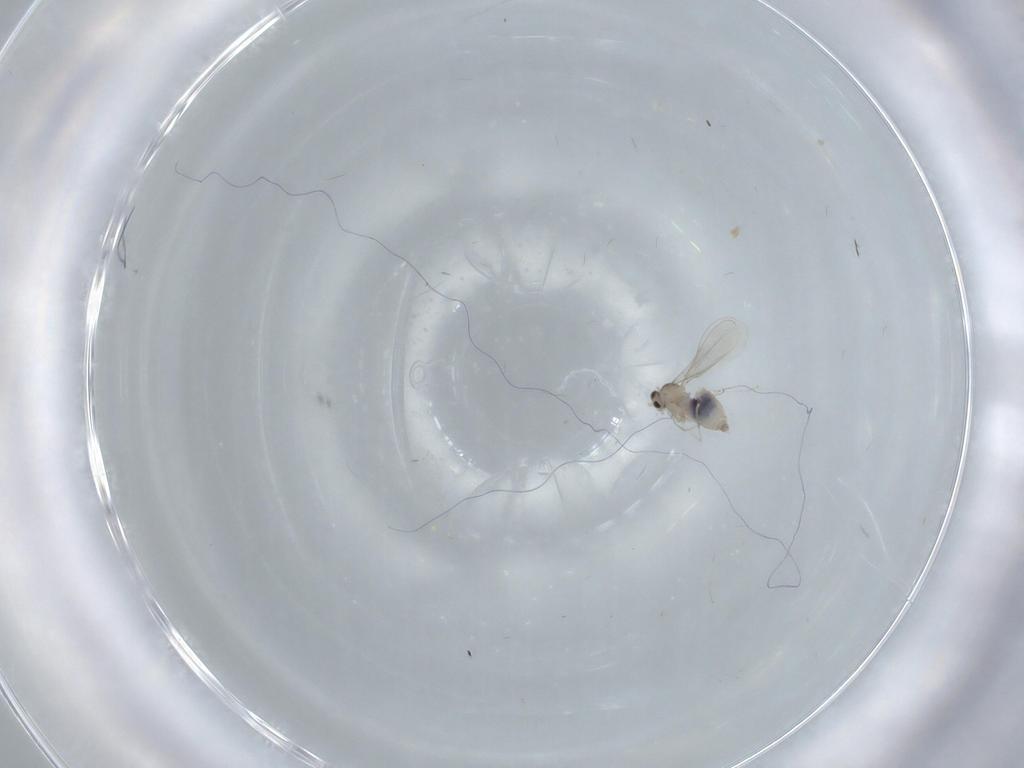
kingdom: Animalia
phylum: Arthropoda
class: Insecta
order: Diptera
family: Cecidomyiidae
